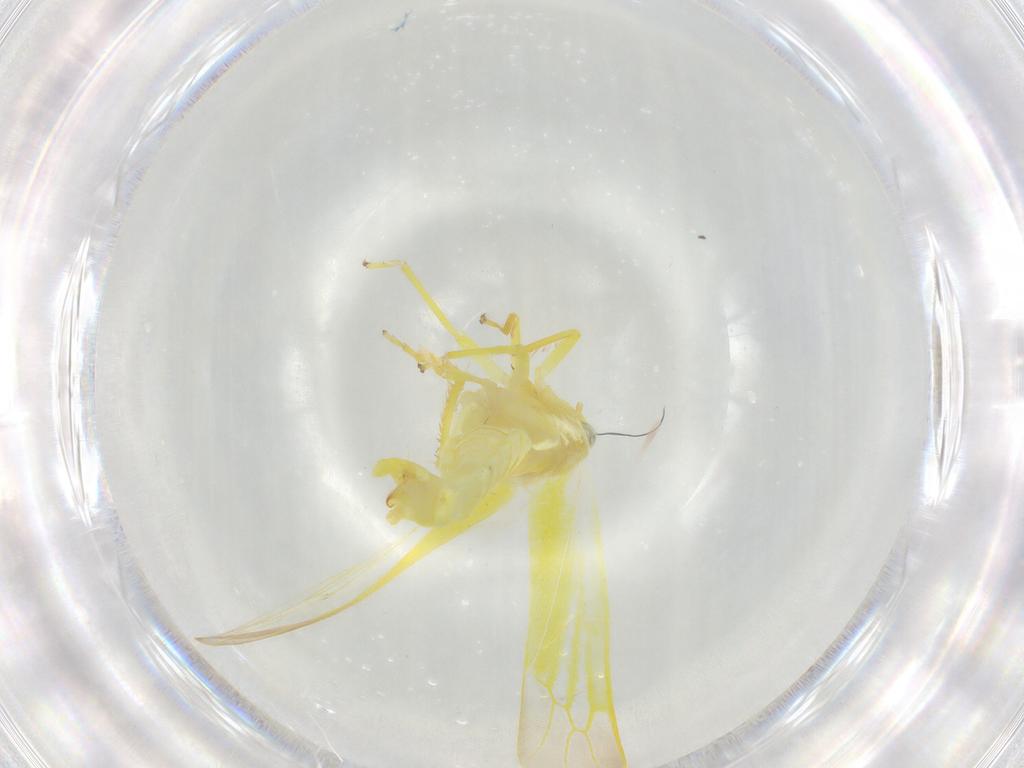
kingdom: Animalia
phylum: Arthropoda
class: Insecta
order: Hemiptera
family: Cicadellidae
